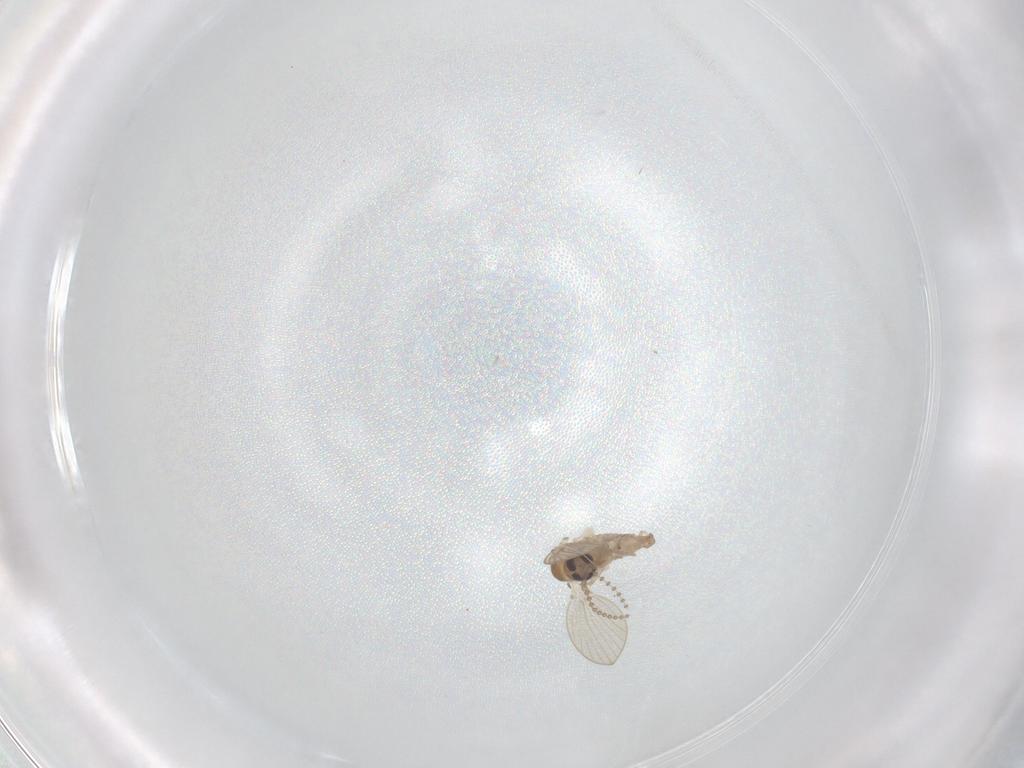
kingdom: Animalia
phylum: Arthropoda
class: Insecta
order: Diptera
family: Psychodidae
